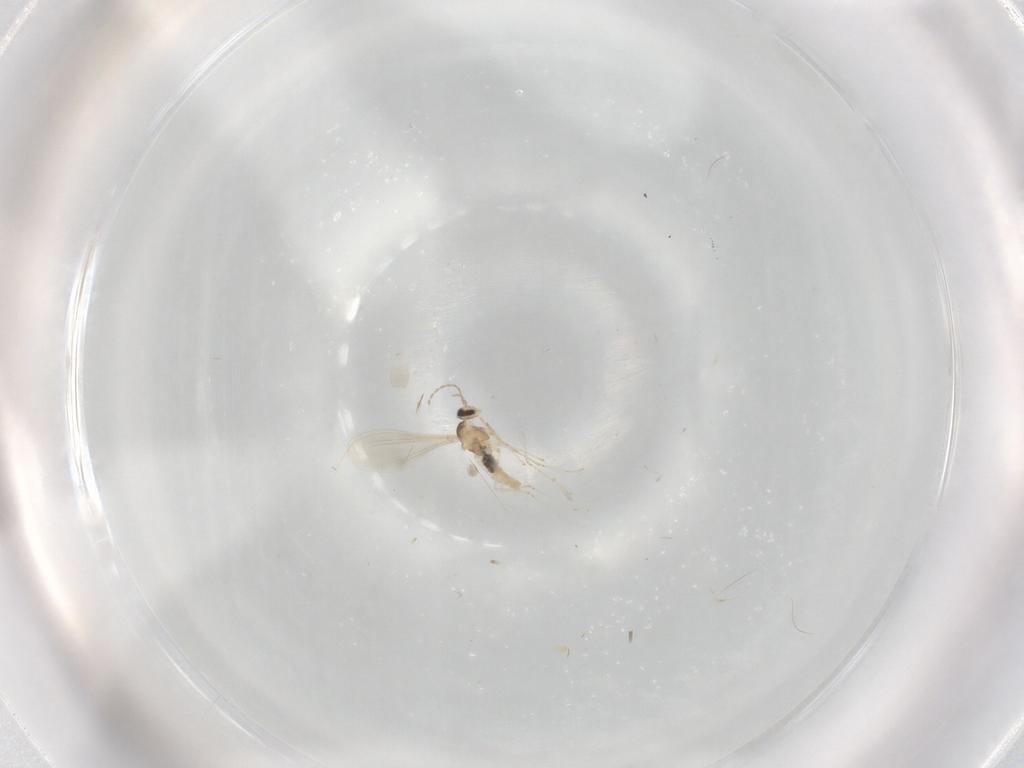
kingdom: Animalia
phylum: Arthropoda
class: Insecta
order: Diptera
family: Cecidomyiidae
